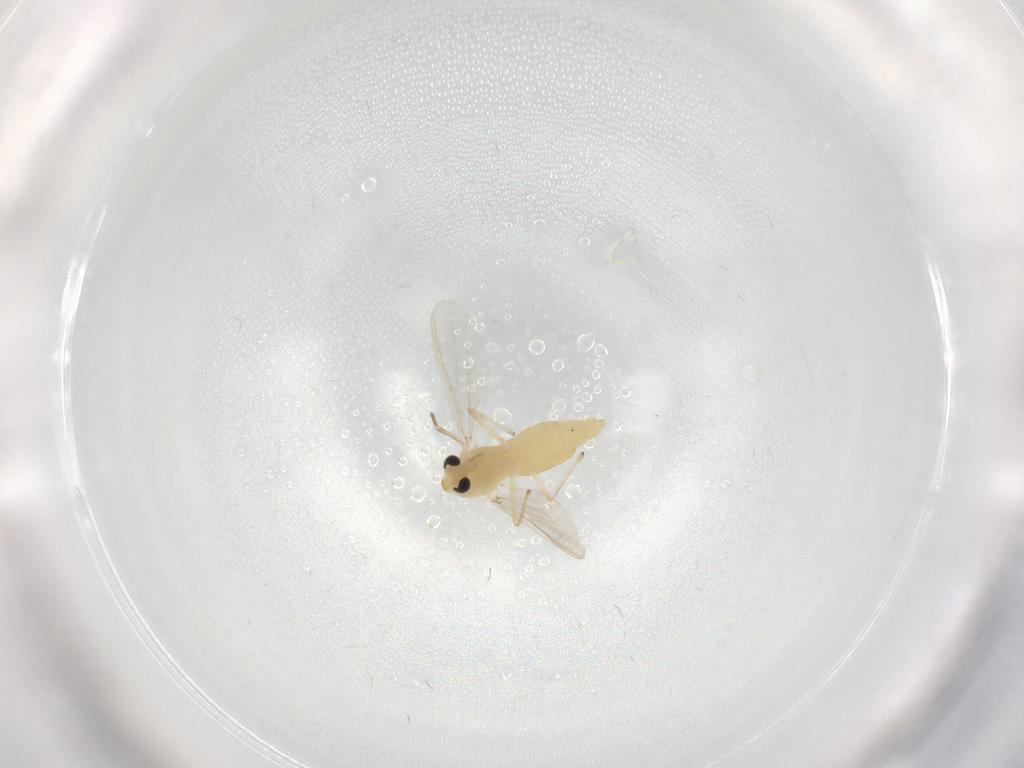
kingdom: Animalia
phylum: Arthropoda
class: Insecta
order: Diptera
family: Chironomidae
